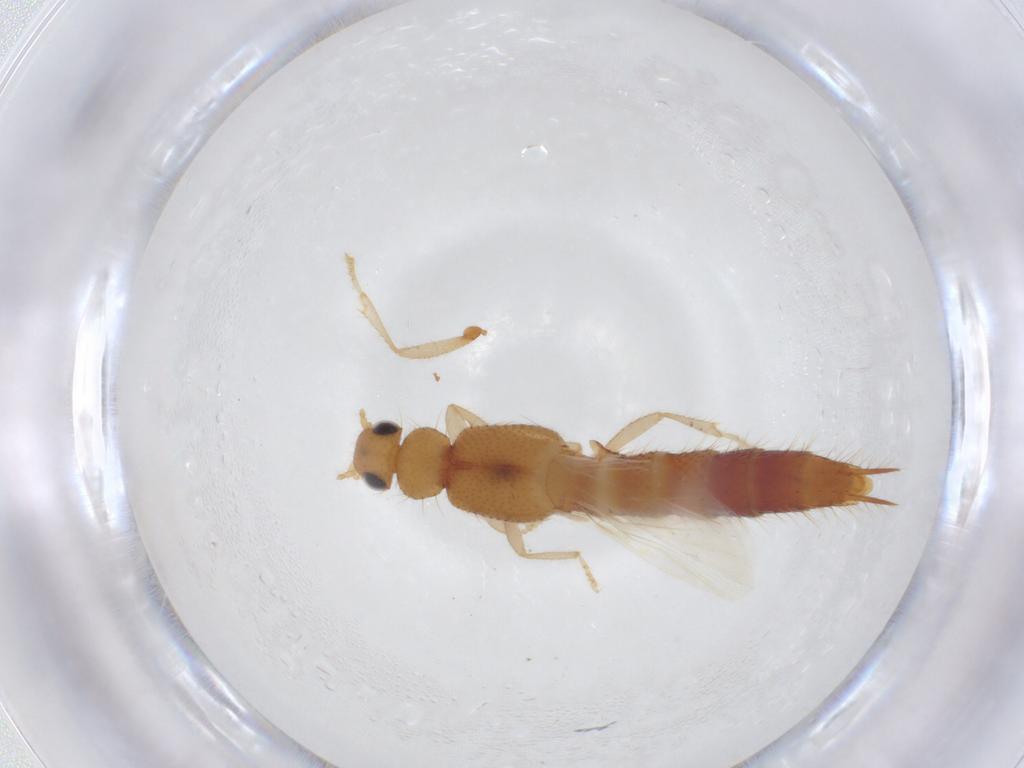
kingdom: Animalia
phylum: Arthropoda
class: Insecta
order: Coleoptera
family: Staphylinidae
